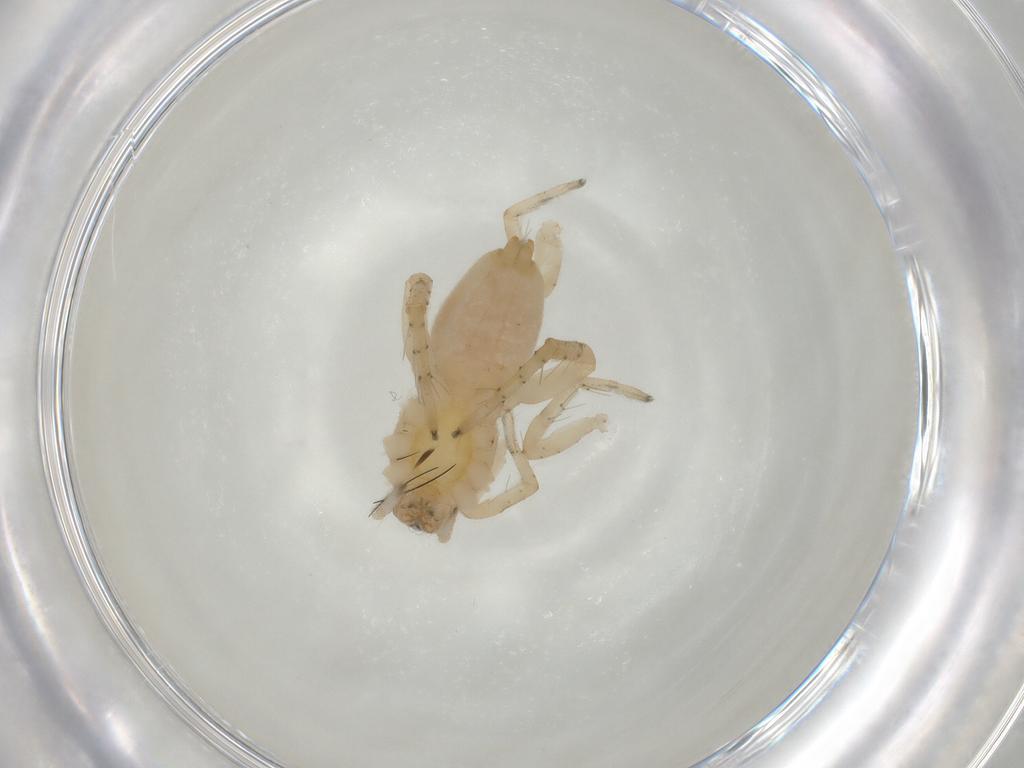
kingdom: Animalia
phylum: Arthropoda
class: Arachnida
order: Araneae
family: Clubionidae
